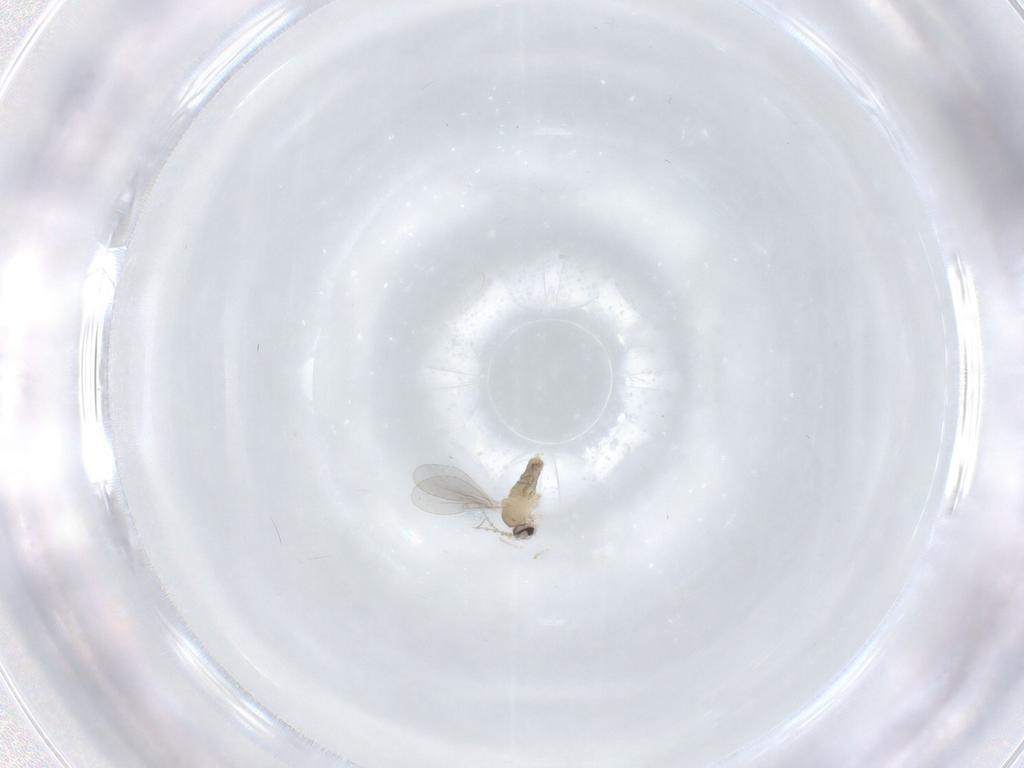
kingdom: Animalia
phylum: Arthropoda
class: Insecta
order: Diptera
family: Cecidomyiidae
